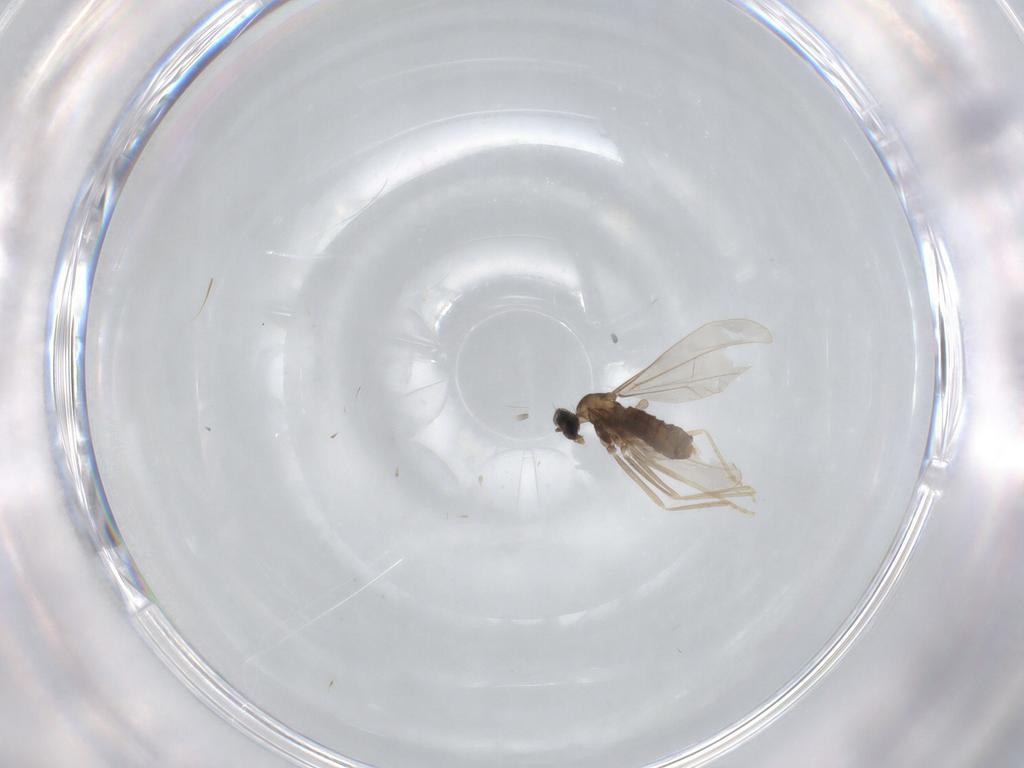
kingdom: Animalia
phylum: Arthropoda
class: Insecta
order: Diptera
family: Cecidomyiidae
